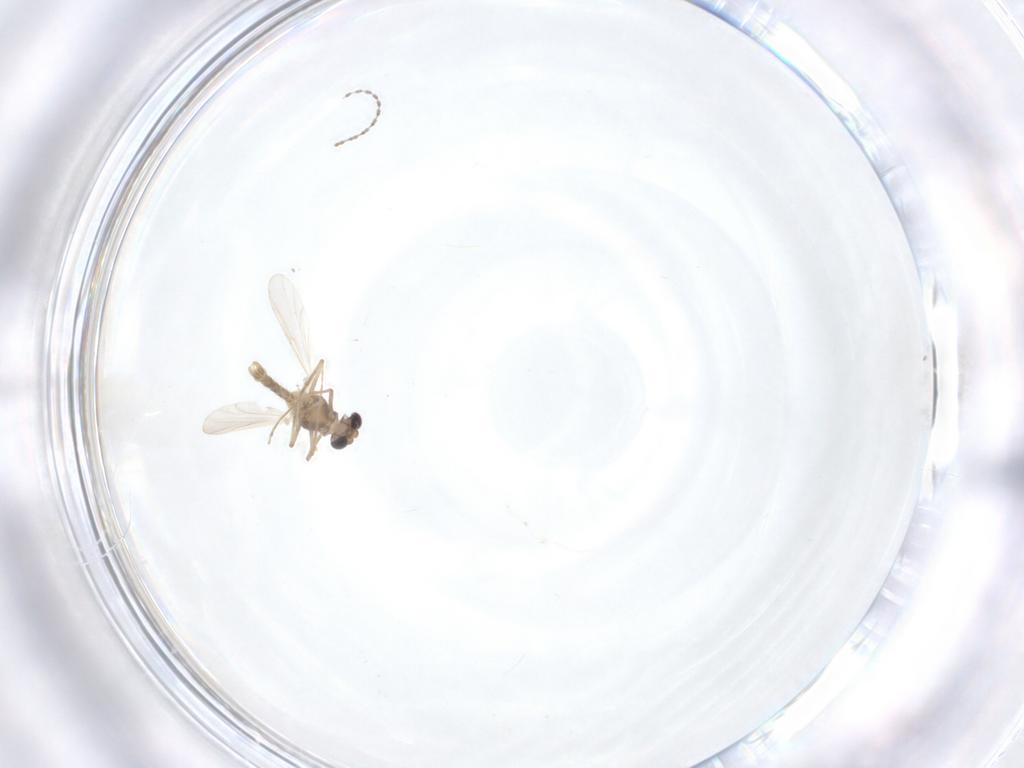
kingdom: Animalia
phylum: Arthropoda
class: Insecta
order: Diptera
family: Chironomidae
